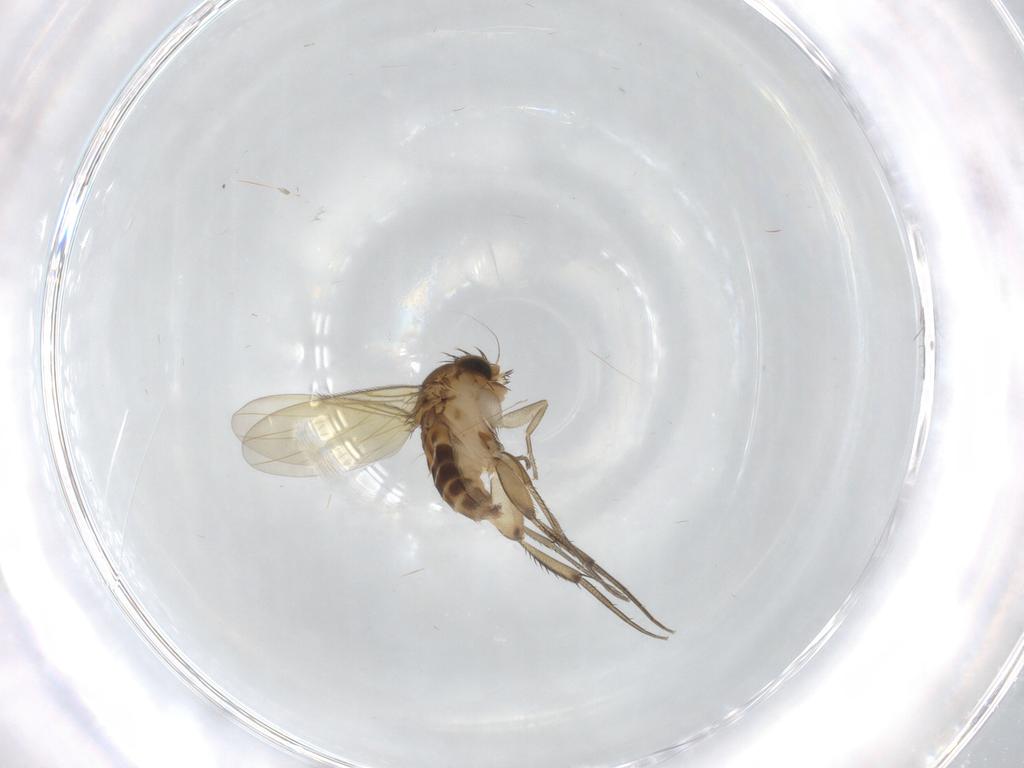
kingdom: Animalia
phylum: Arthropoda
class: Insecta
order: Diptera
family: Phoridae
